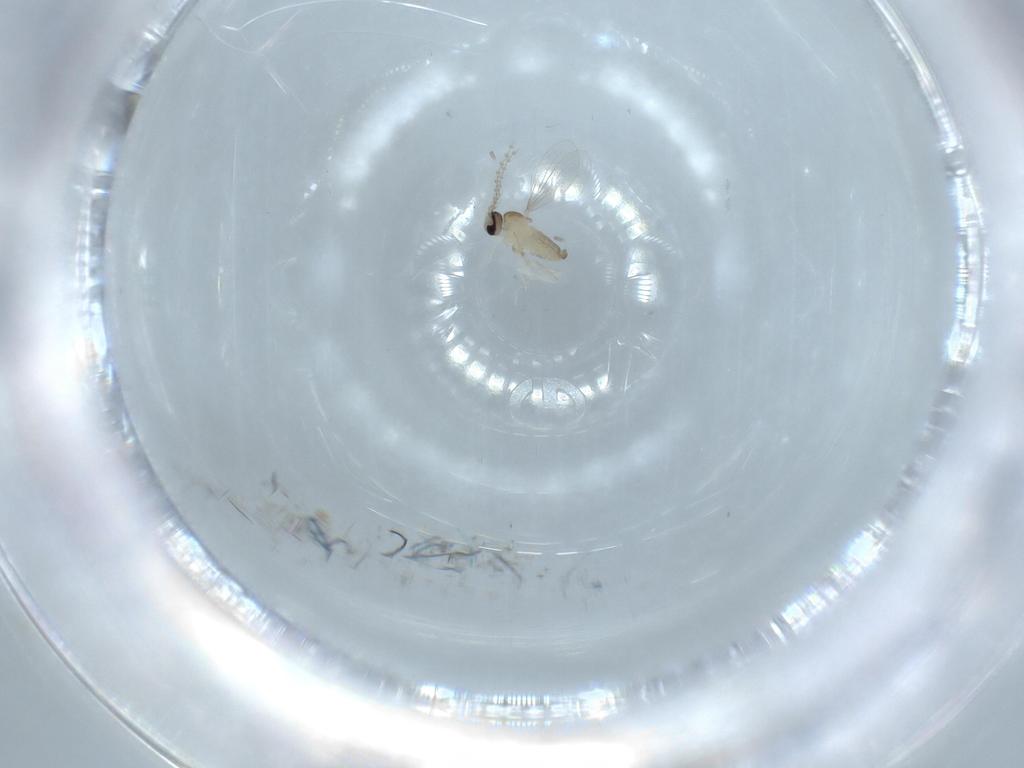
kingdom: Animalia
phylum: Arthropoda
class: Insecta
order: Diptera
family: Cecidomyiidae
